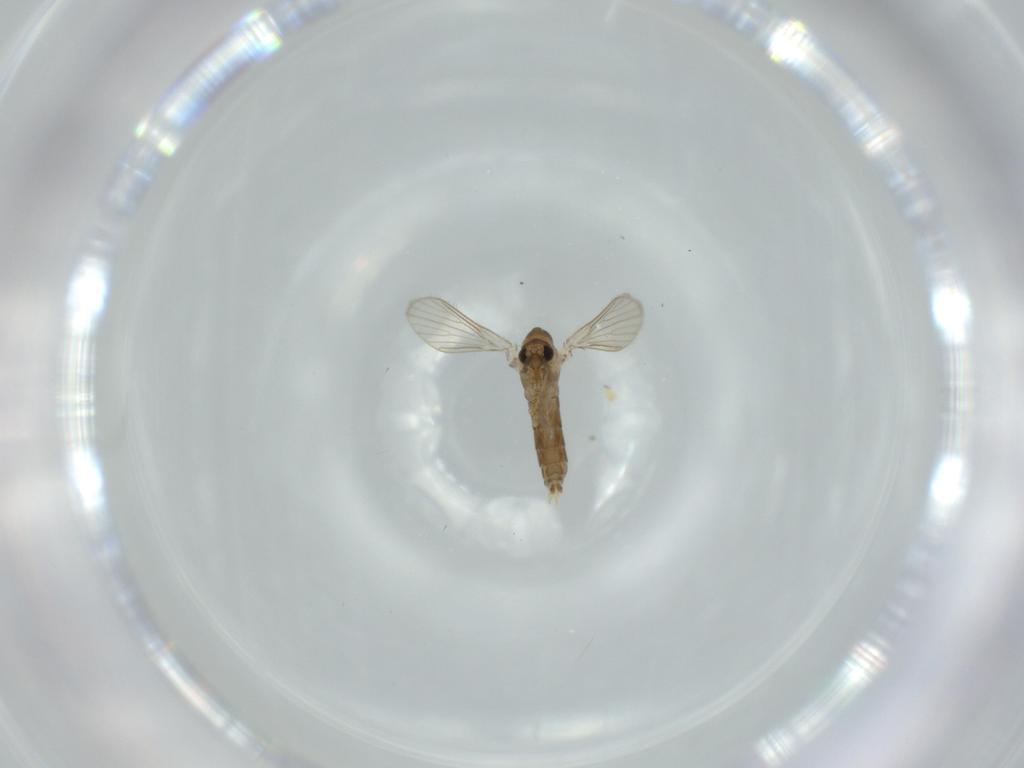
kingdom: Animalia
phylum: Arthropoda
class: Insecta
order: Diptera
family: Psychodidae
